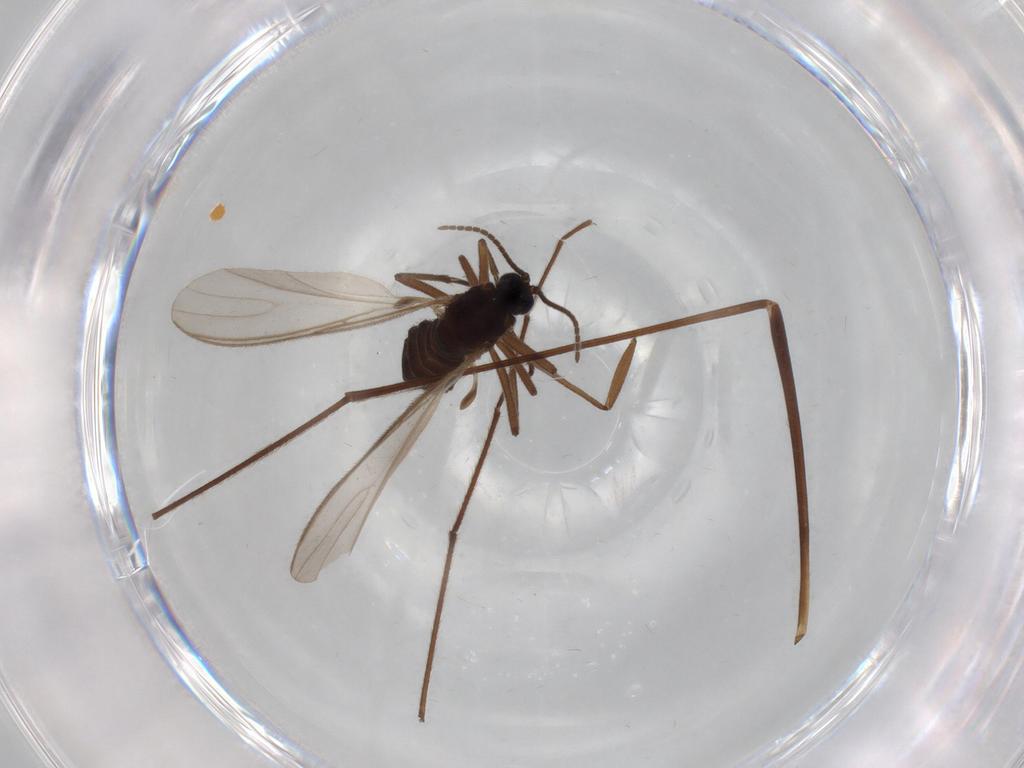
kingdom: Animalia
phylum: Arthropoda
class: Insecta
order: Diptera
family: Sciaridae
